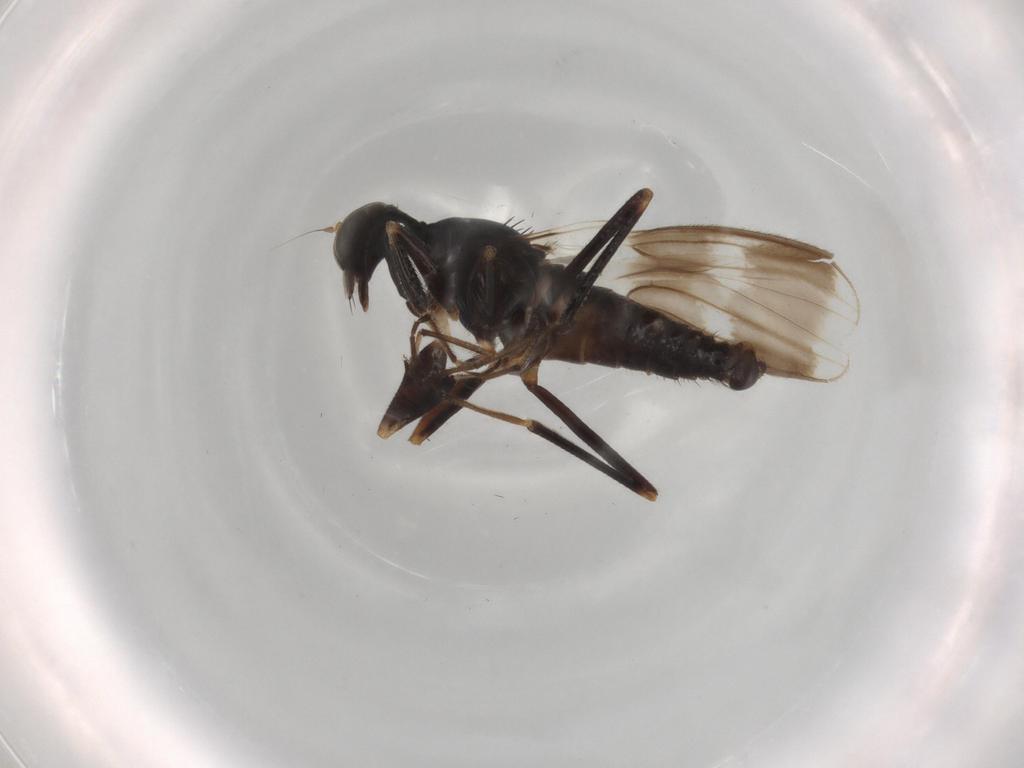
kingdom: Animalia
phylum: Arthropoda
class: Insecta
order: Diptera
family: Hybotidae
